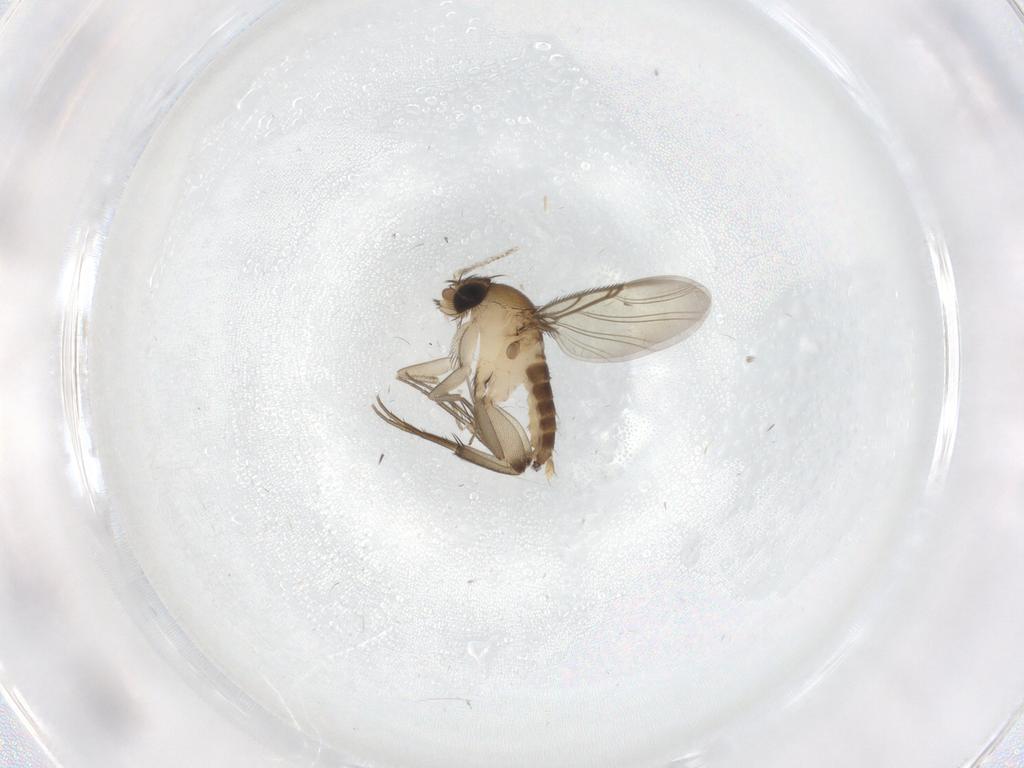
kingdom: Animalia
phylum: Arthropoda
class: Insecta
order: Diptera
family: Phoridae
